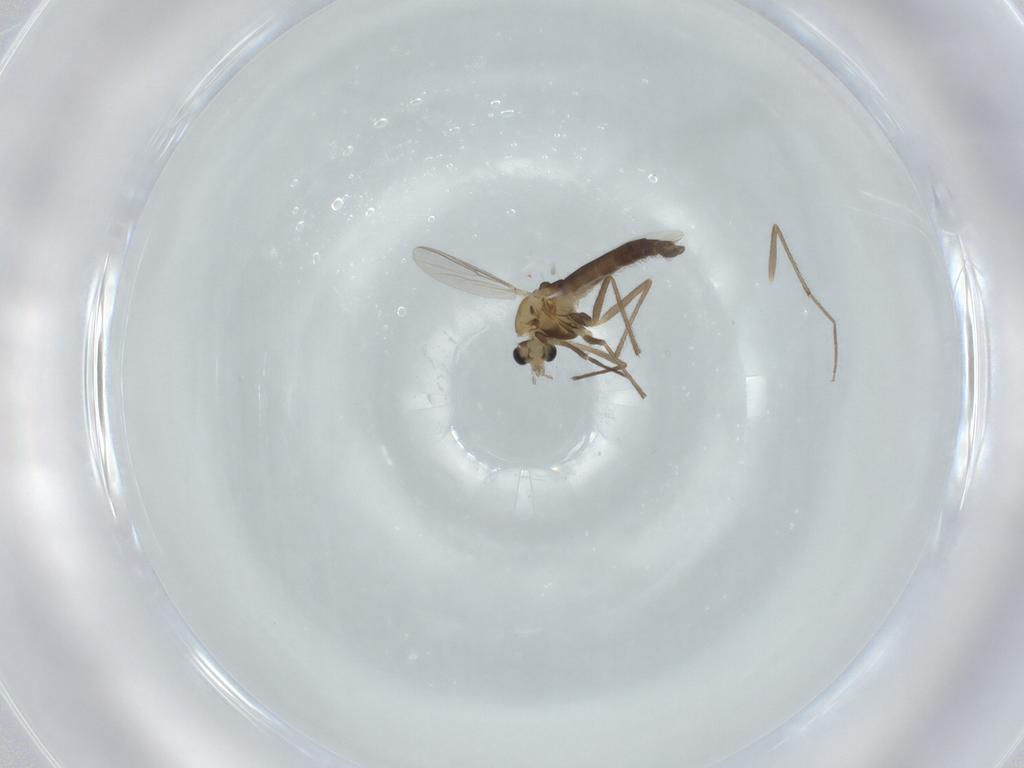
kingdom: Animalia
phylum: Arthropoda
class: Insecta
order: Diptera
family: Chironomidae
